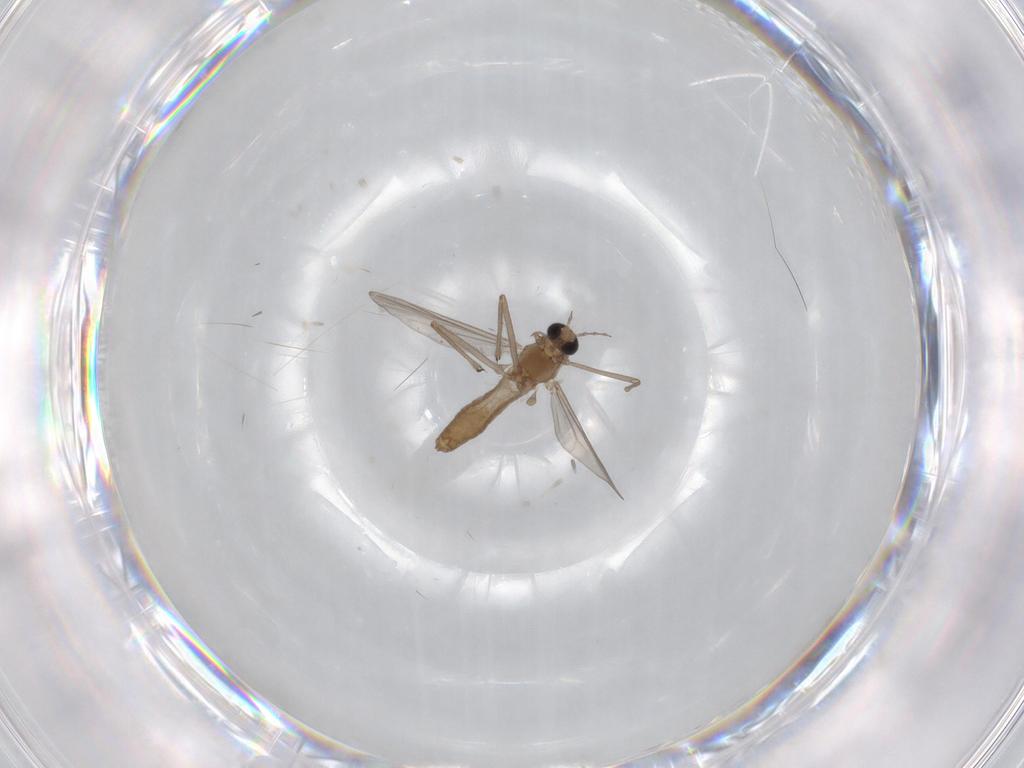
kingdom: Animalia
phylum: Arthropoda
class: Insecta
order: Diptera
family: Chironomidae
